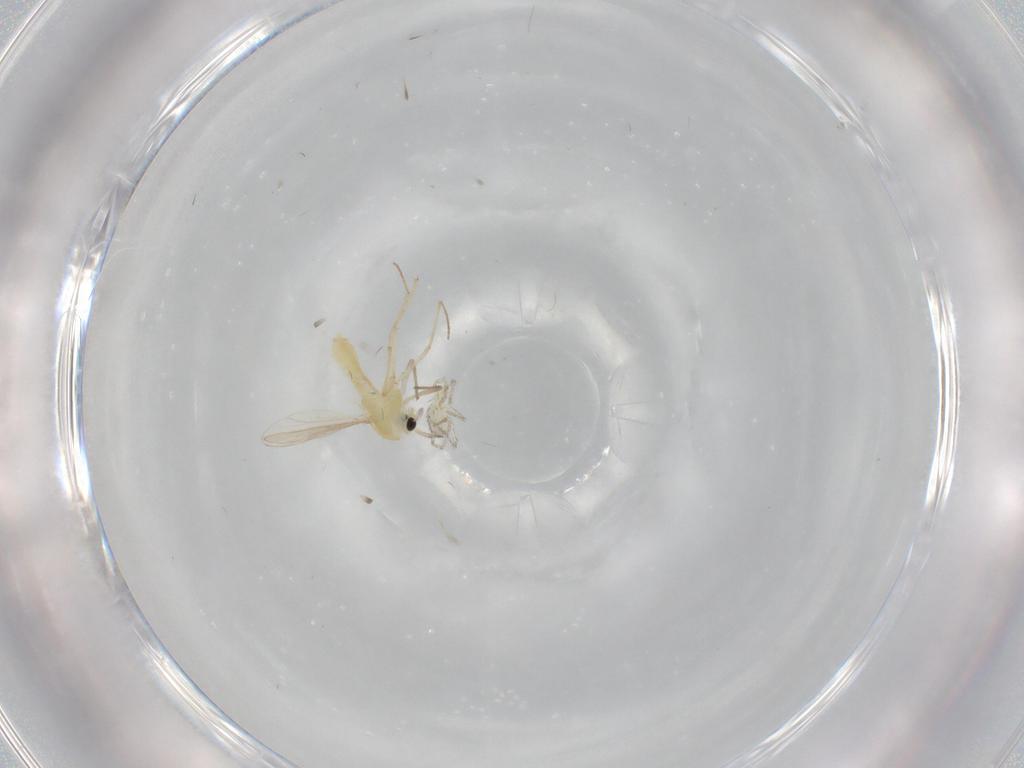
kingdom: Animalia
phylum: Arthropoda
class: Insecta
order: Diptera
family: Chironomidae
